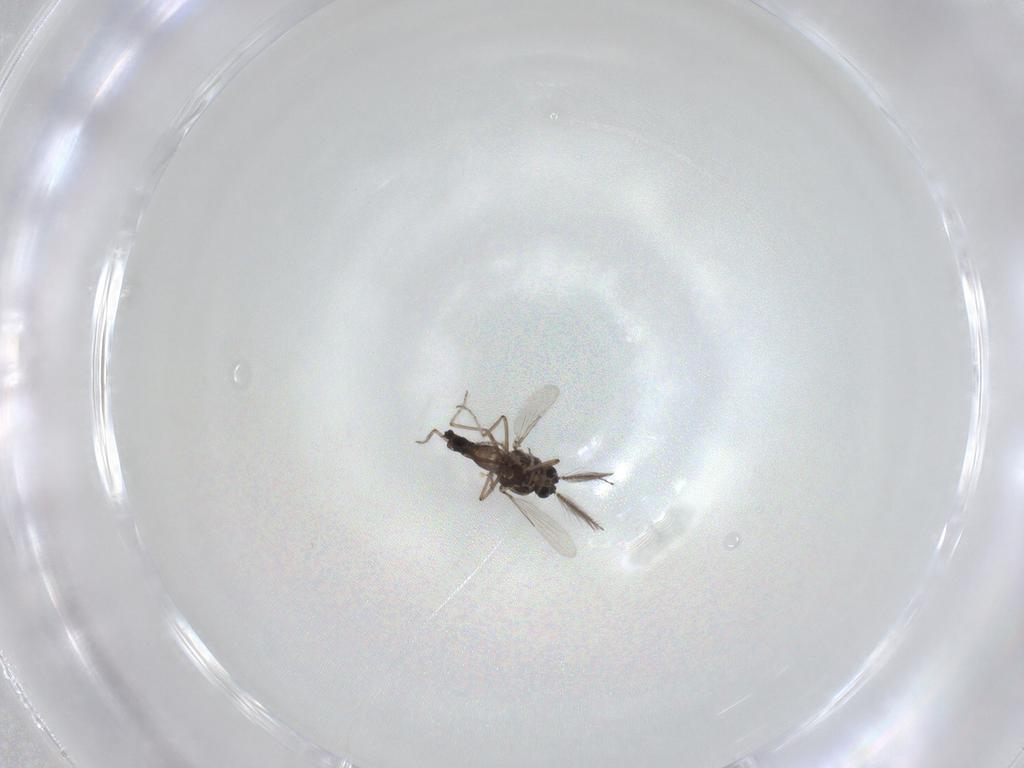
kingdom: Animalia
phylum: Arthropoda
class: Insecta
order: Diptera
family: Ceratopogonidae
